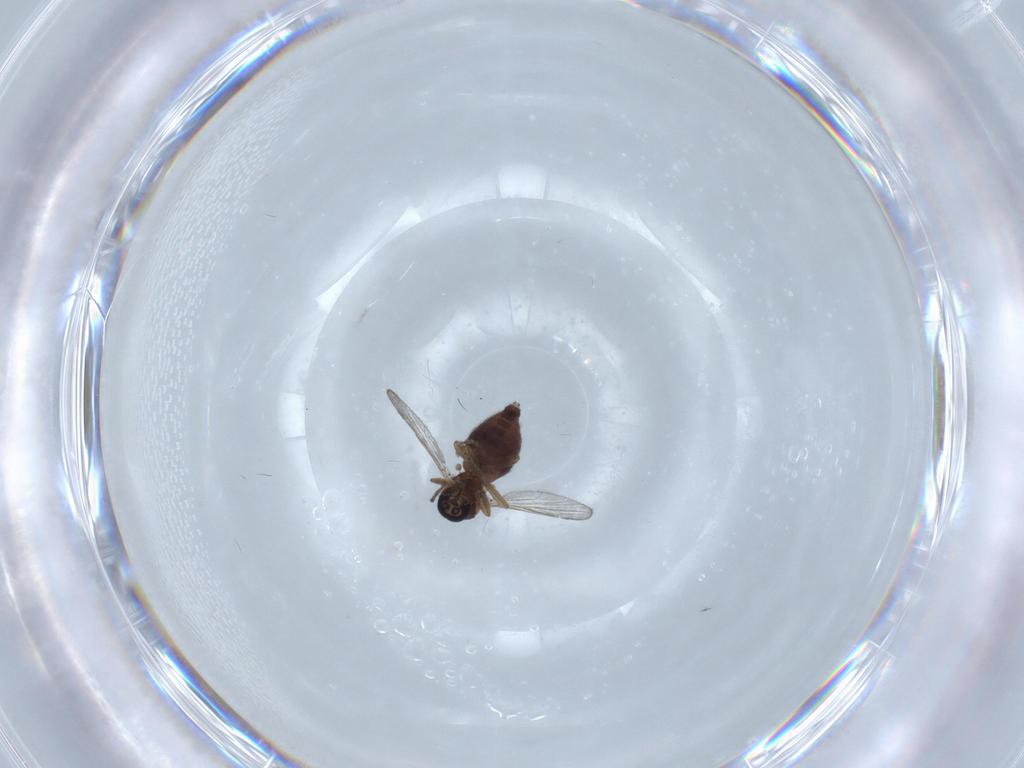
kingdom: Animalia
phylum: Arthropoda
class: Insecta
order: Diptera
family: Chironomidae
